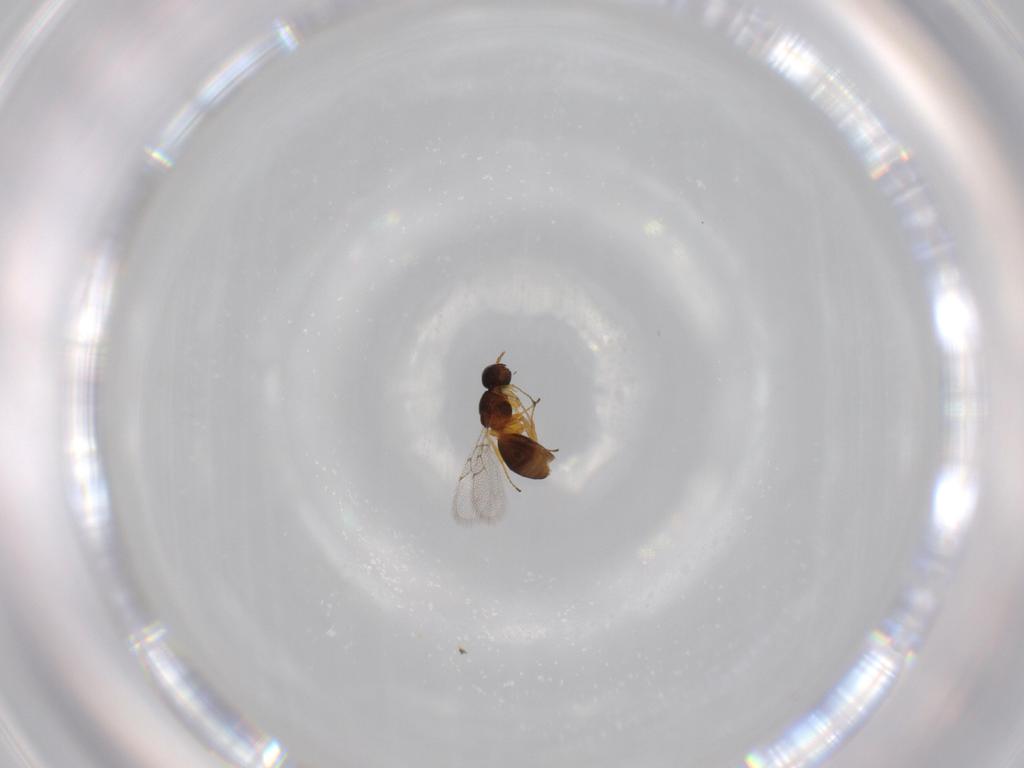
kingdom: Animalia
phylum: Arthropoda
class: Insecta
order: Hymenoptera
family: Figitidae
